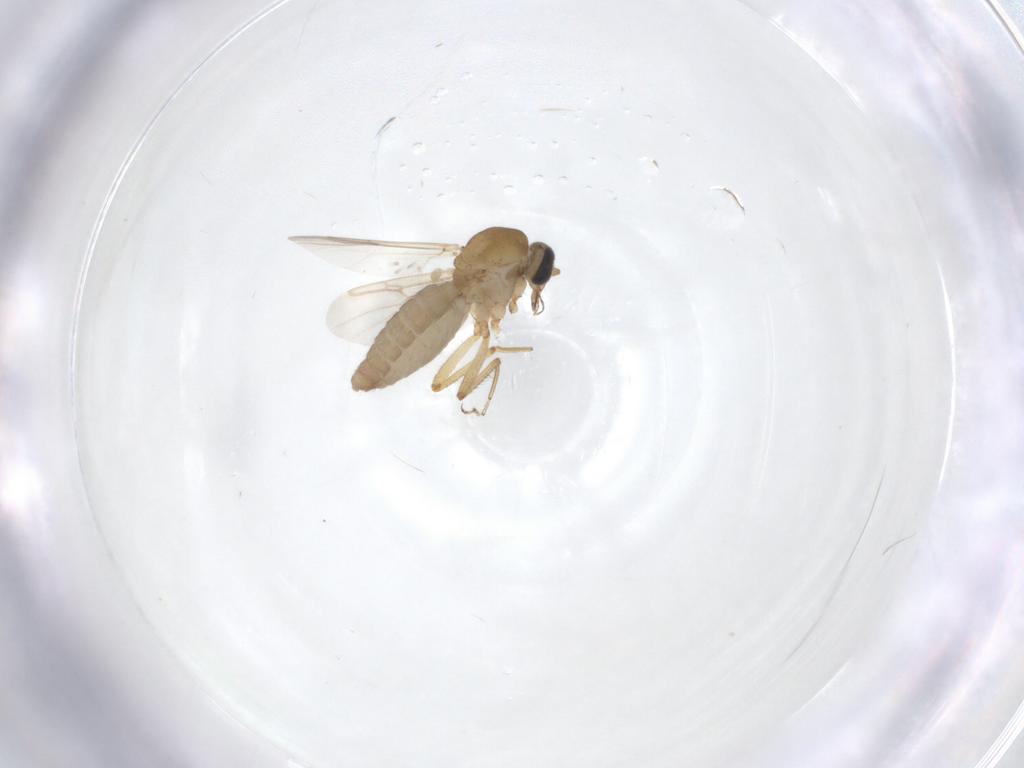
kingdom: Animalia
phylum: Arthropoda
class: Insecta
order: Diptera
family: Ceratopogonidae
